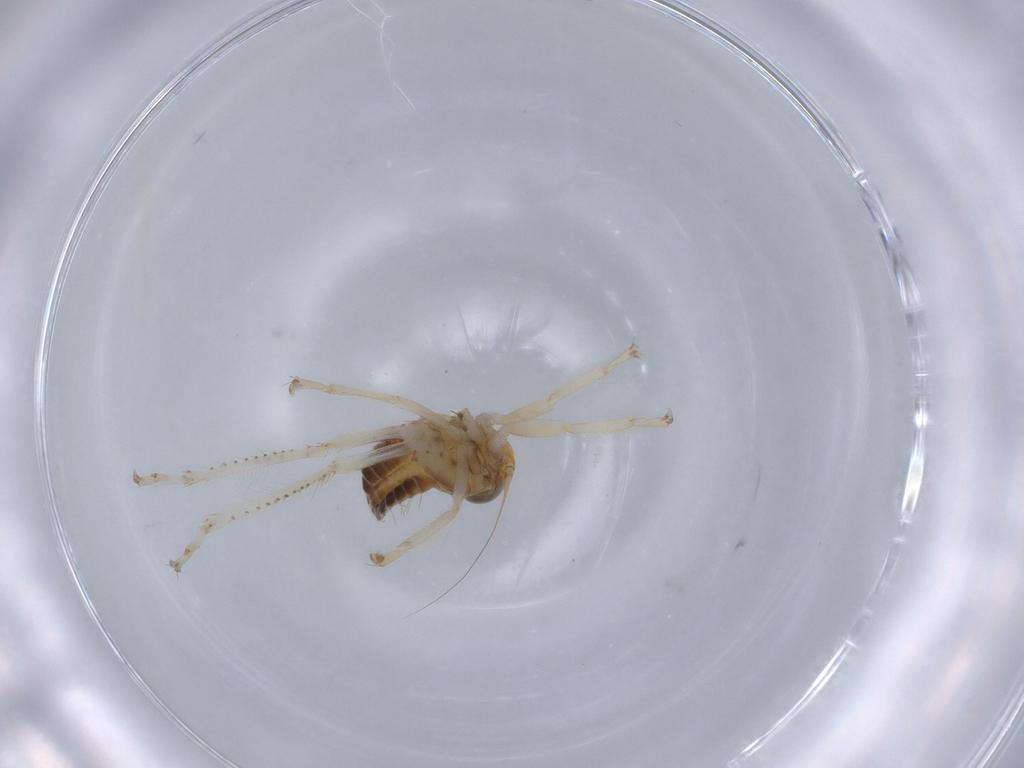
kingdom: Animalia
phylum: Arthropoda
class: Insecta
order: Hemiptera
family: Cicadellidae
